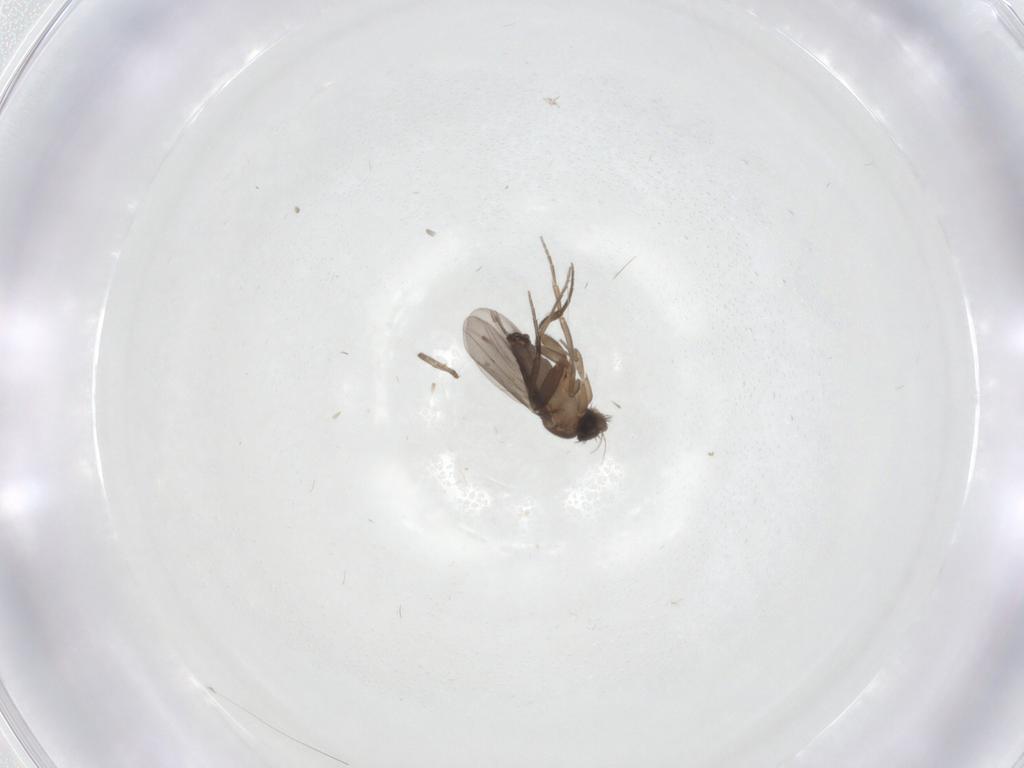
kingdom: Animalia
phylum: Arthropoda
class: Insecta
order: Diptera
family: Phoridae
